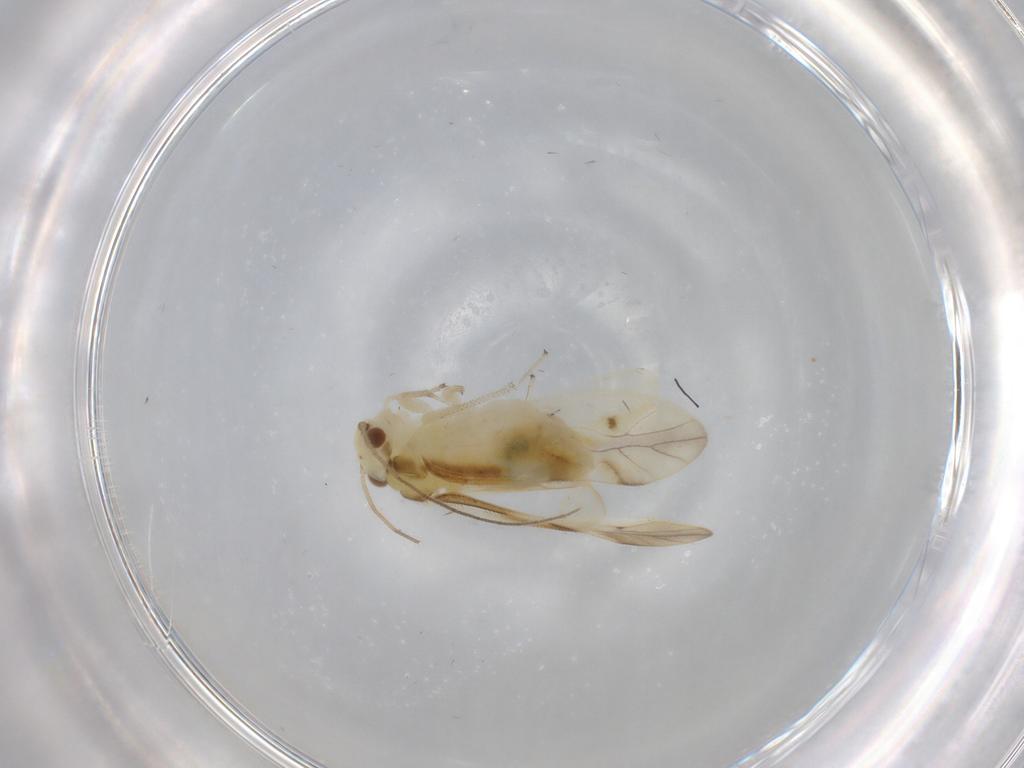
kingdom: Animalia
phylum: Arthropoda
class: Insecta
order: Psocodea
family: Caeciliusidae
